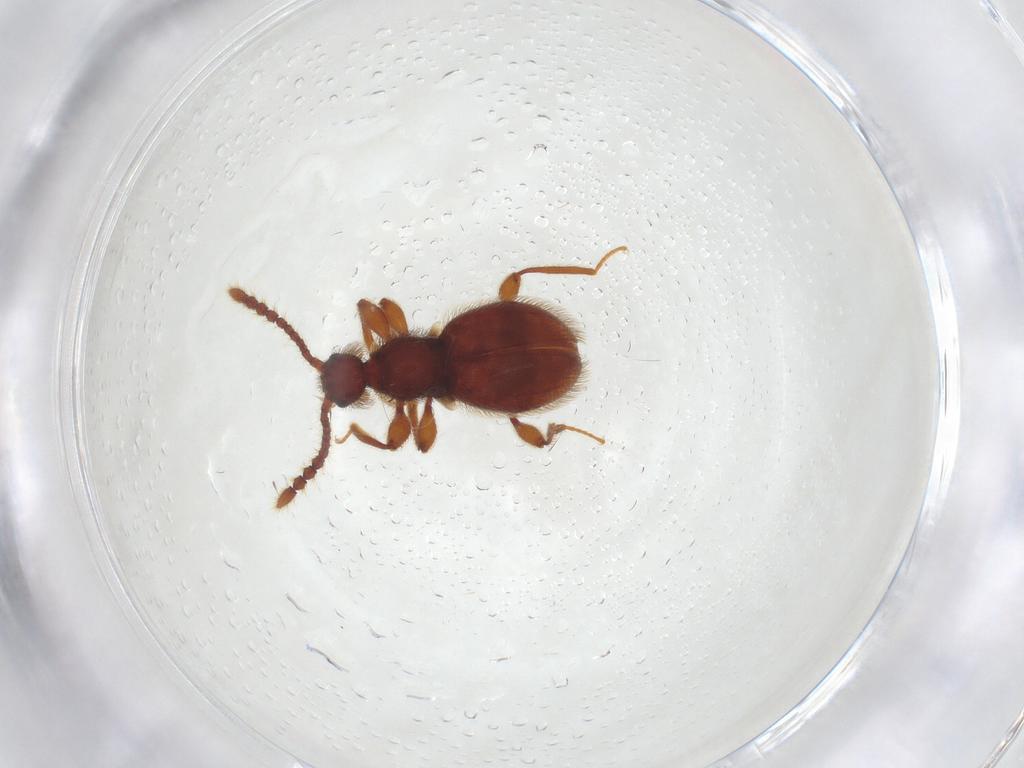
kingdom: Animalia
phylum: Arthropoda
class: Insecta
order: Coleoptera
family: Staphylinidae
